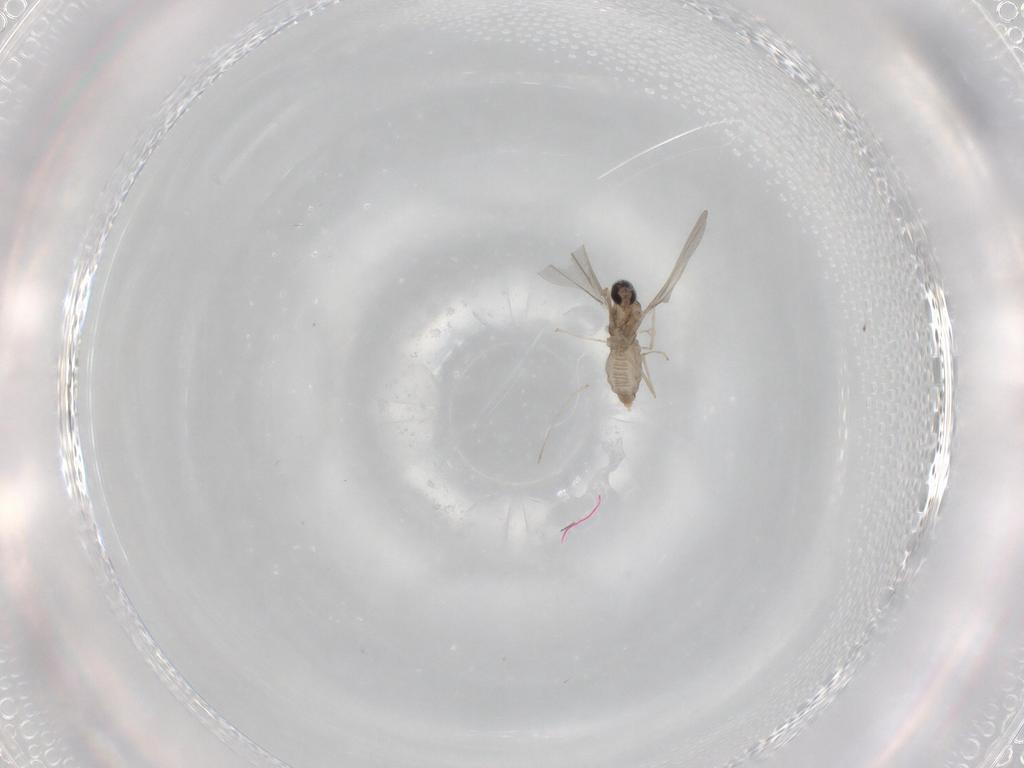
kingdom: Animalia
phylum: Arthropoda
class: Insecta
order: Diptera
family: Cecidomyiidae
